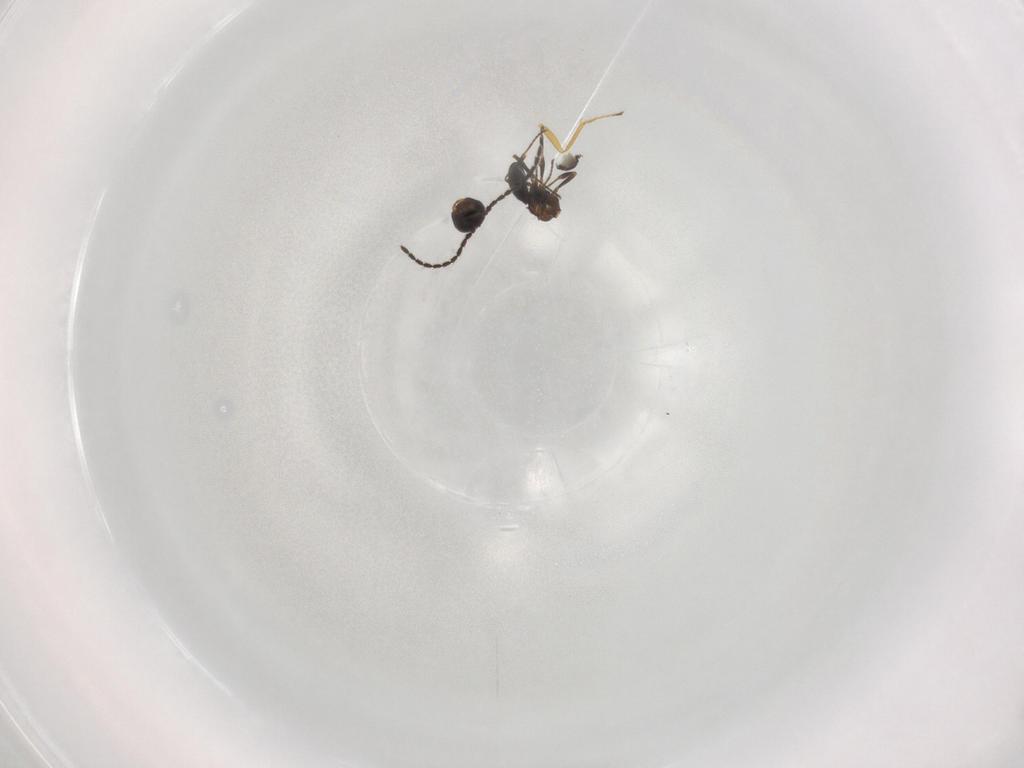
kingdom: Animalia
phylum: Arthropoda
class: Insecta
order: Hymenoptera
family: Scelionidae
